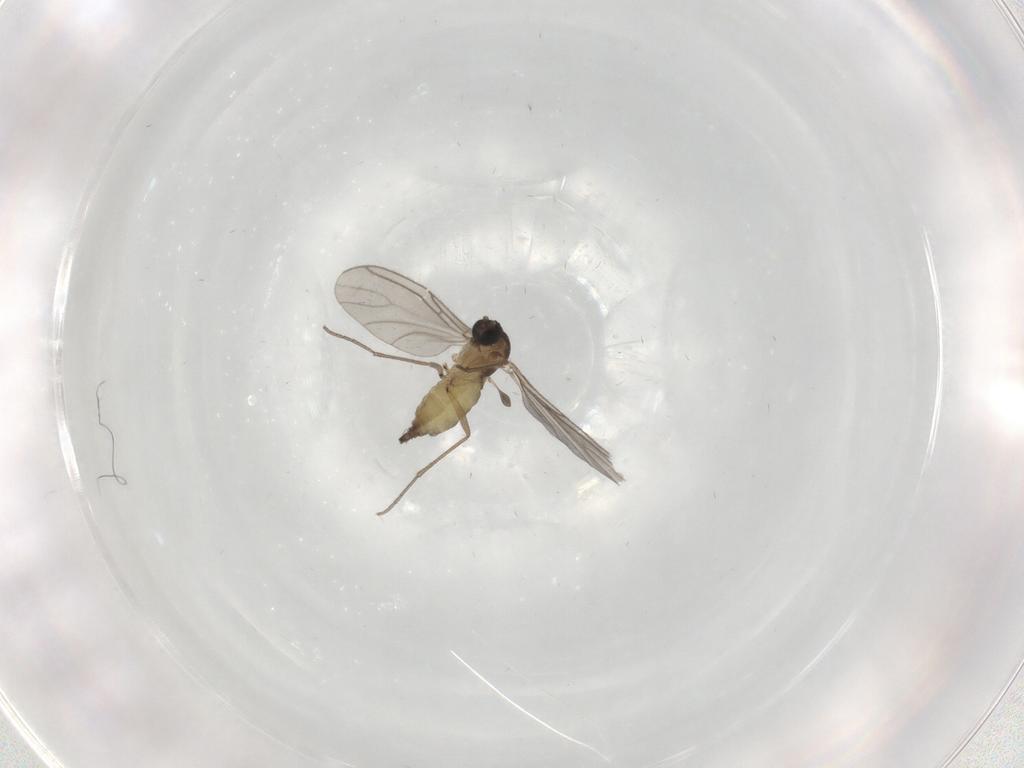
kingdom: Animalia
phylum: Arthropoda
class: Insecta
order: Diptera
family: Sciaridae
